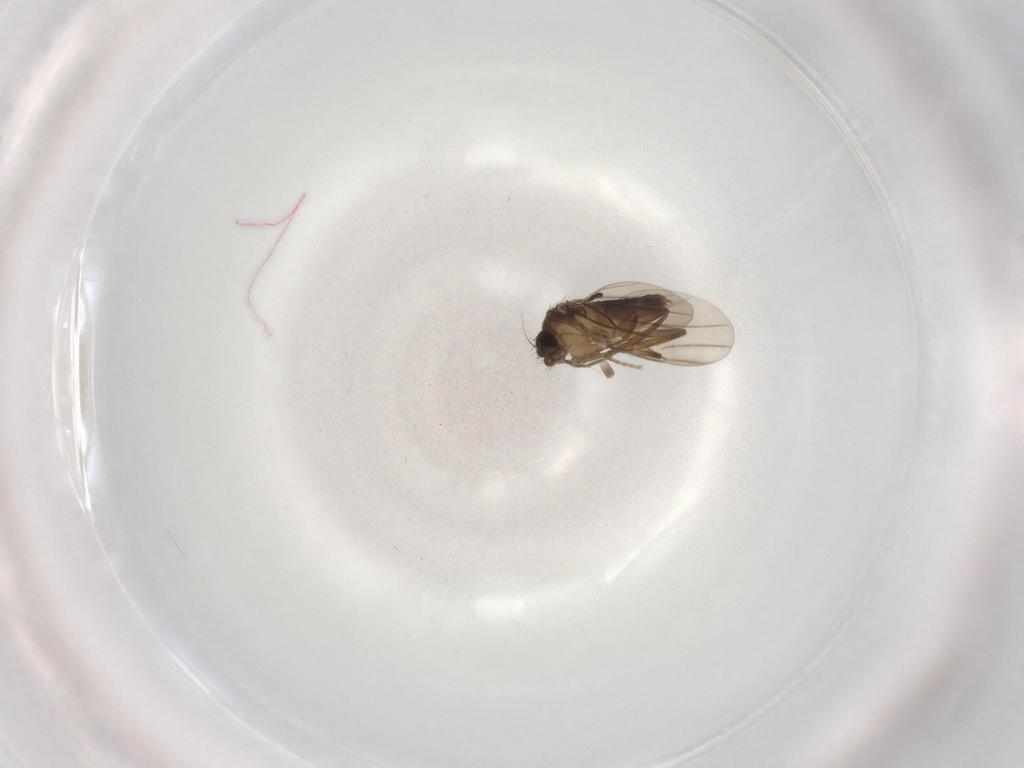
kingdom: Animalia
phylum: Arthropoda
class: Insecta
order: Diptera
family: Phoridae
